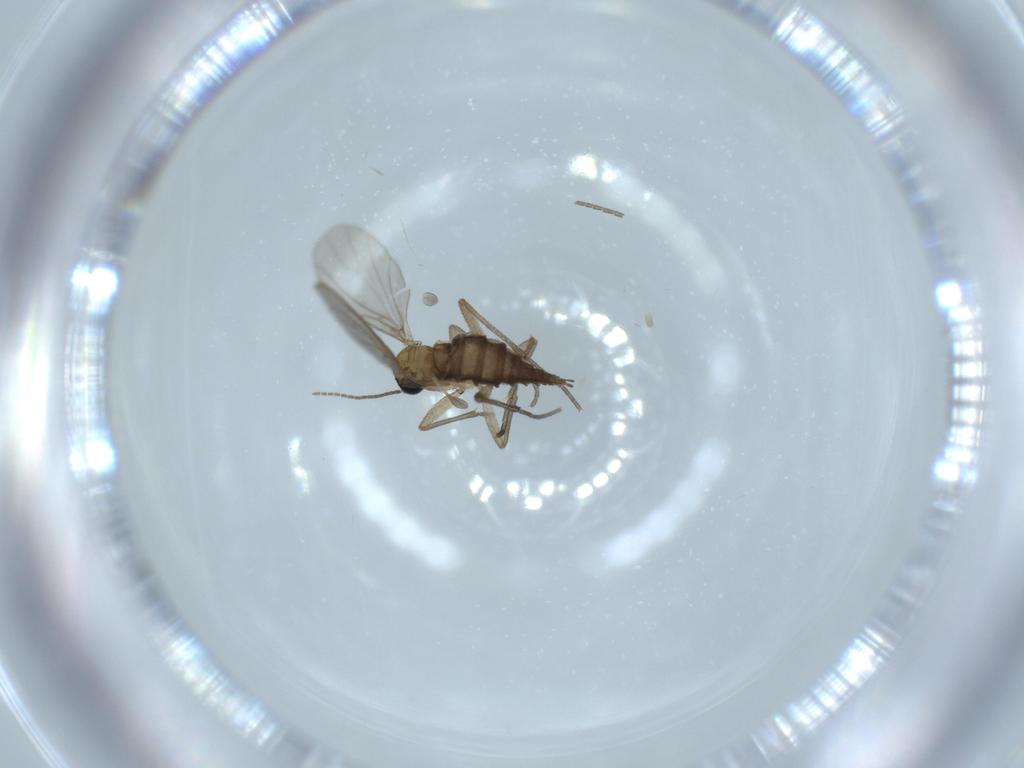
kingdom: Animalia
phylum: Arthropoda
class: Insecta
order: Diptera
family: Sciaridae
